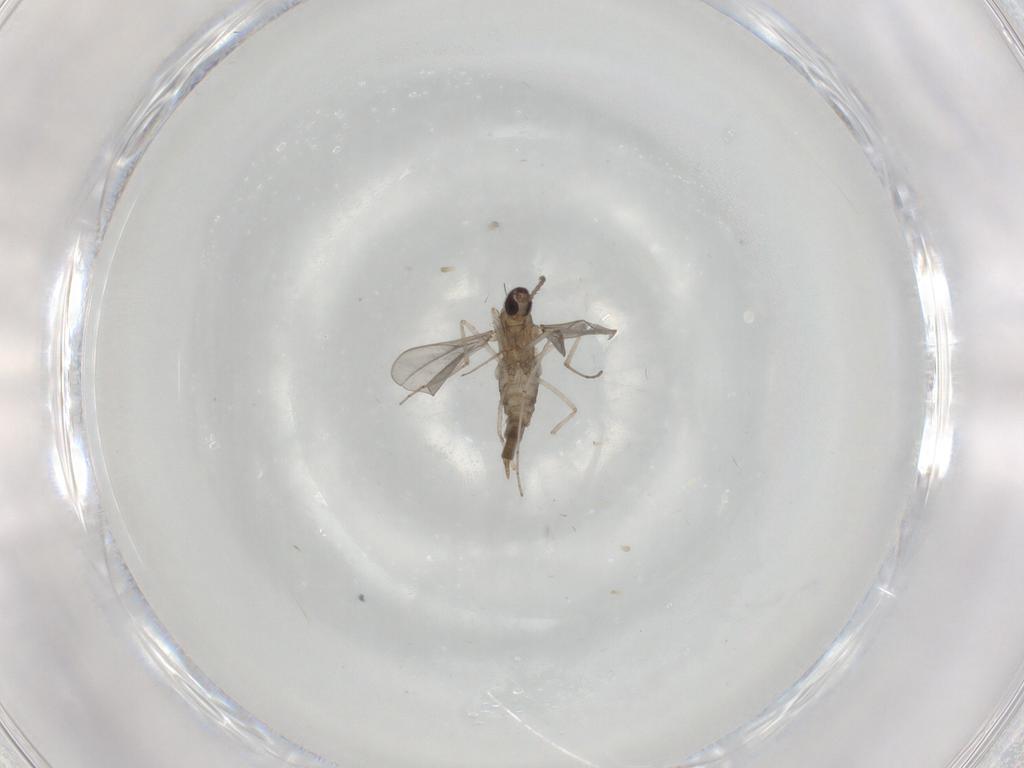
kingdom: Animalia
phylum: Arthropoda
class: Insecta
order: Diptera
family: Cecidomyiidae
